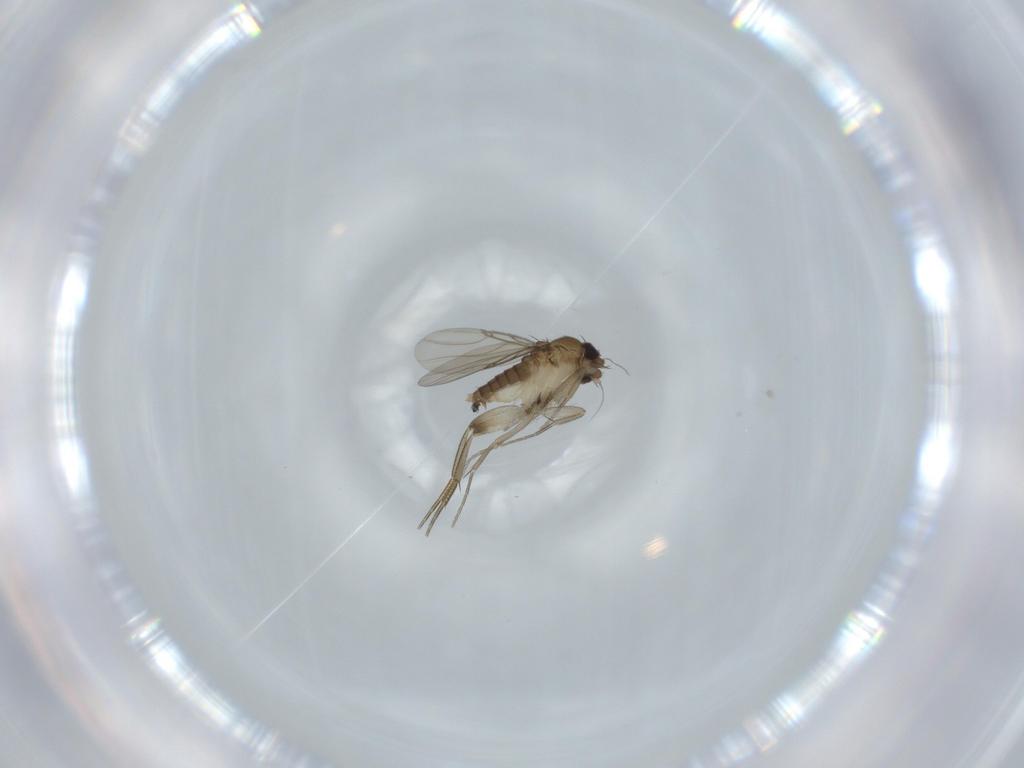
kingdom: Animalia
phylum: Arthropoda
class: Insecta
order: Diptera
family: Phoridae
